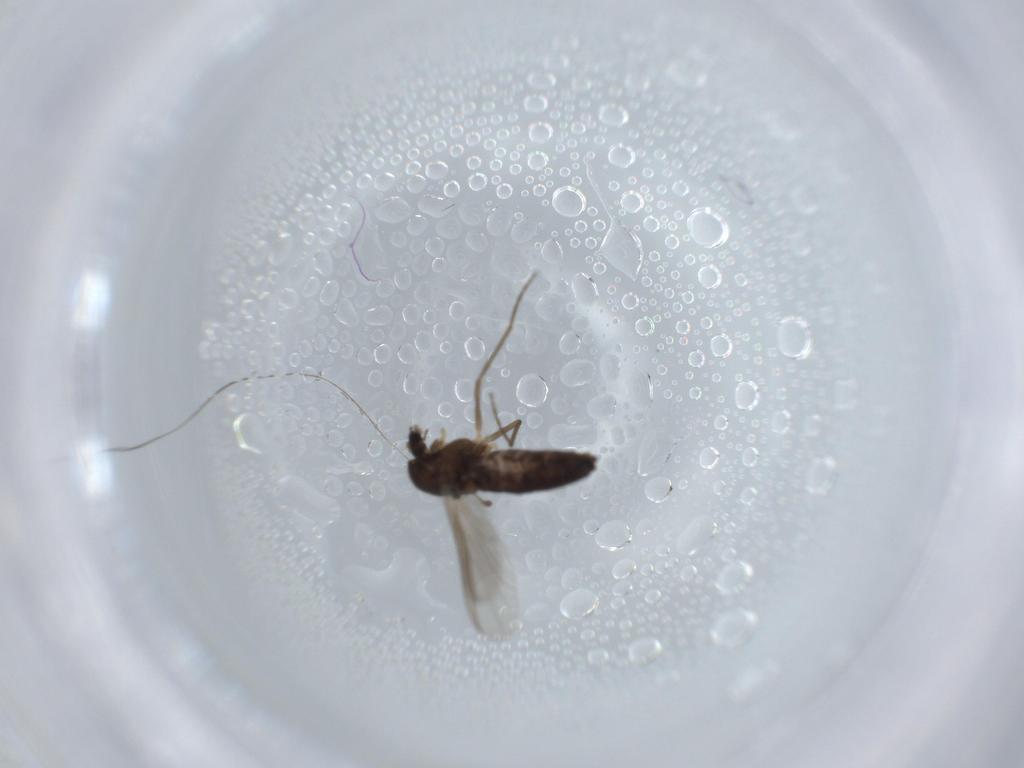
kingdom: Animalia
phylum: Arthropoda
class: Insecta
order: Diptera
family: Chironomidae
